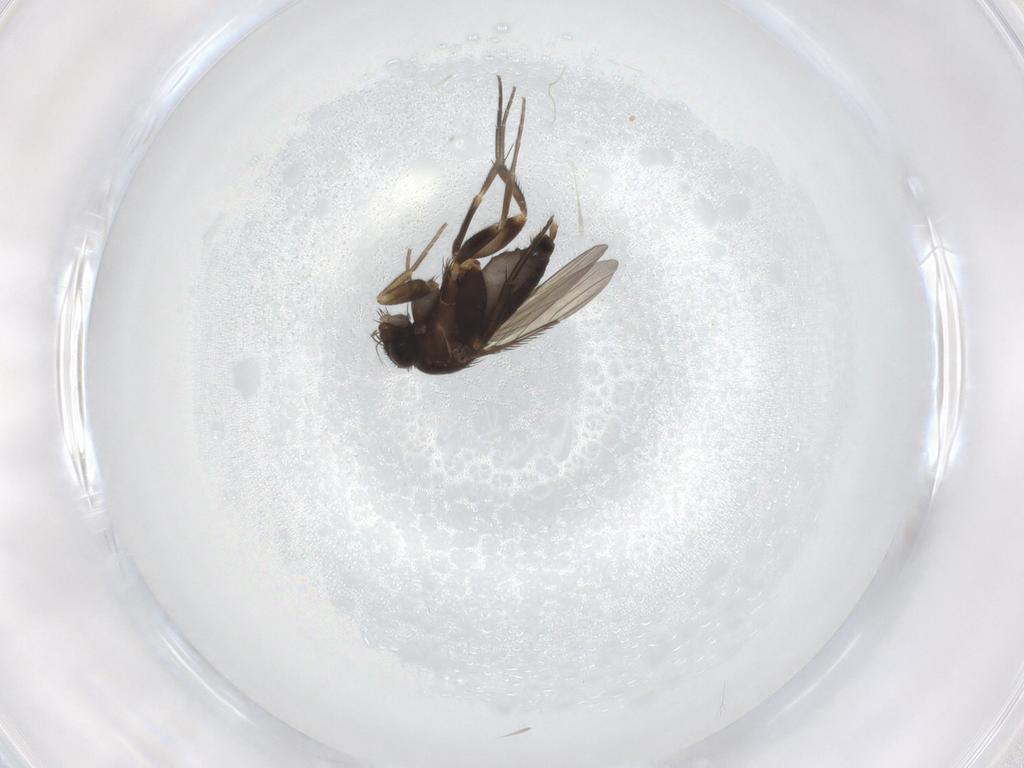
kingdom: Animalia
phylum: Arthropoda
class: Insecta
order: Diptera
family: Phoridae
